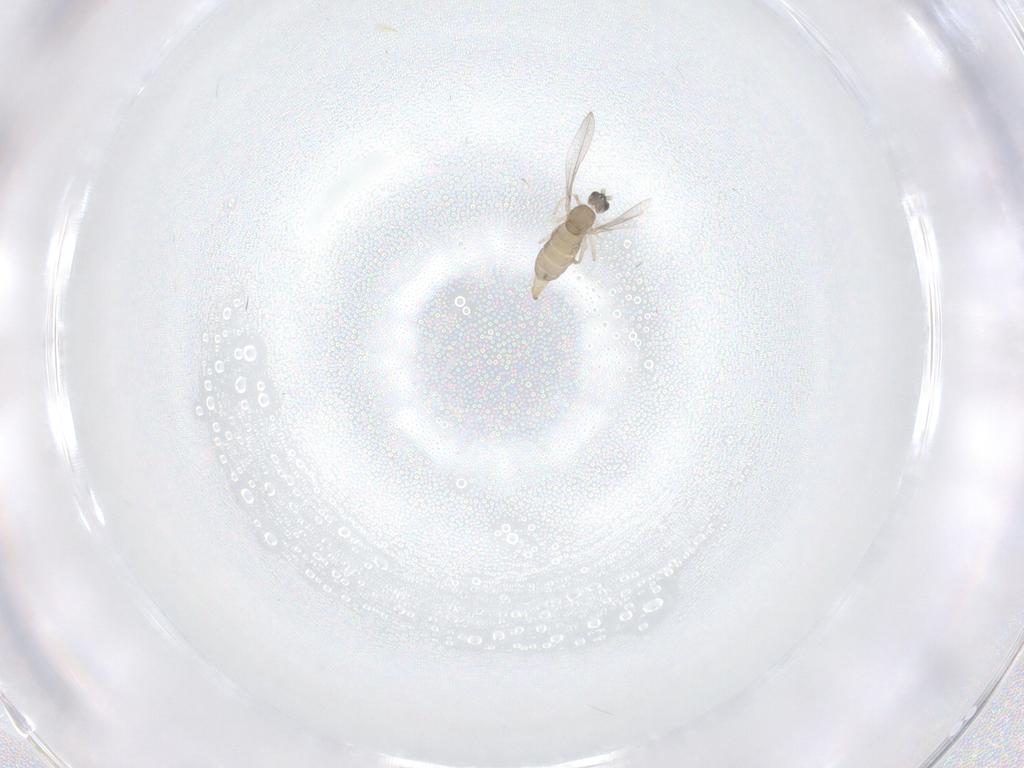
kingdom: Animalia
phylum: Arthropoda
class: Insecta
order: Diptera
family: Cecidomyiidae
